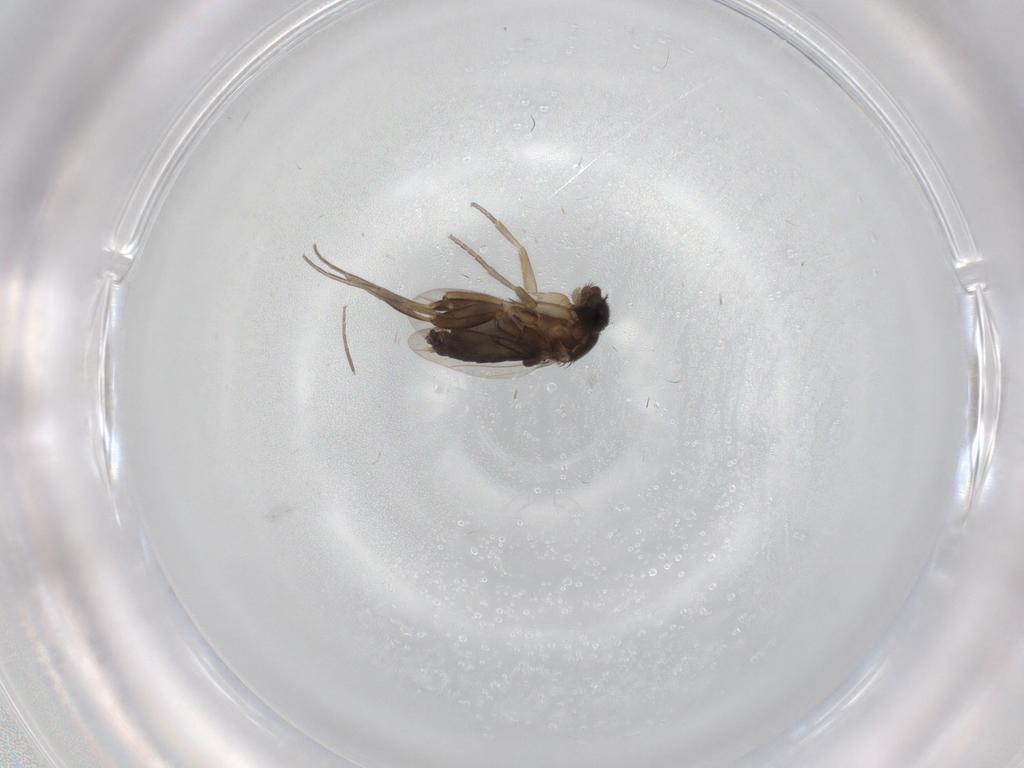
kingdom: Animalia
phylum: Arthropoda
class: Insecta
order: Diptera
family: Phoridae
